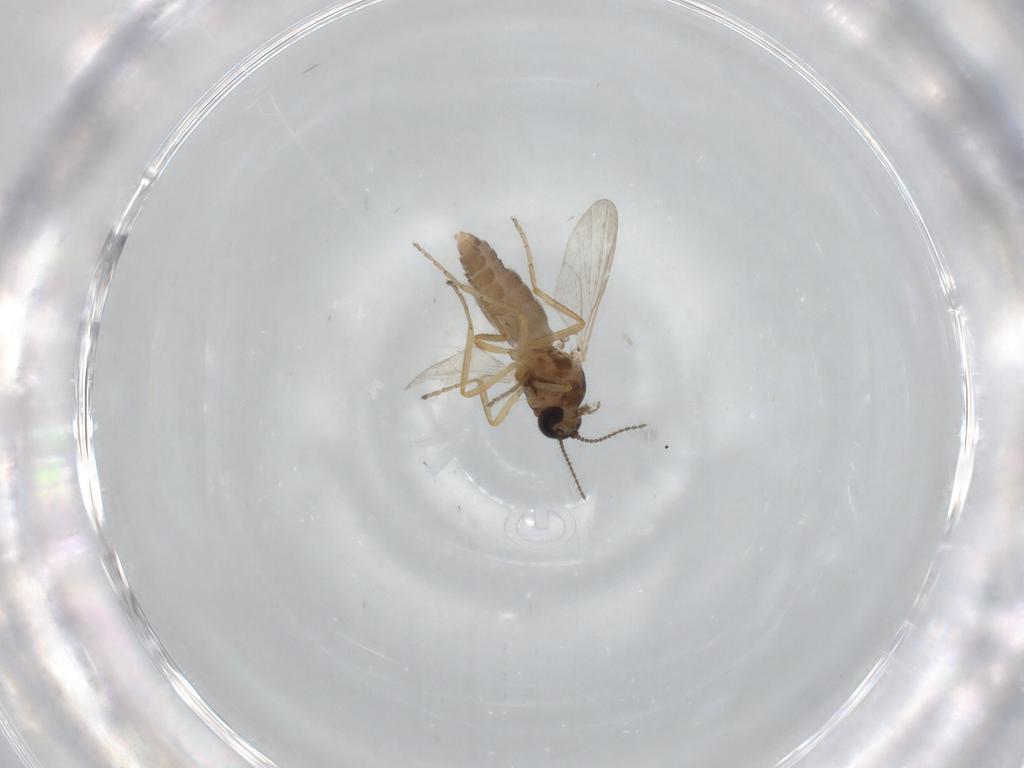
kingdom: Animalia
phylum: Arthropoda
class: Insecta
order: Diptera
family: Ceratopogonidae
